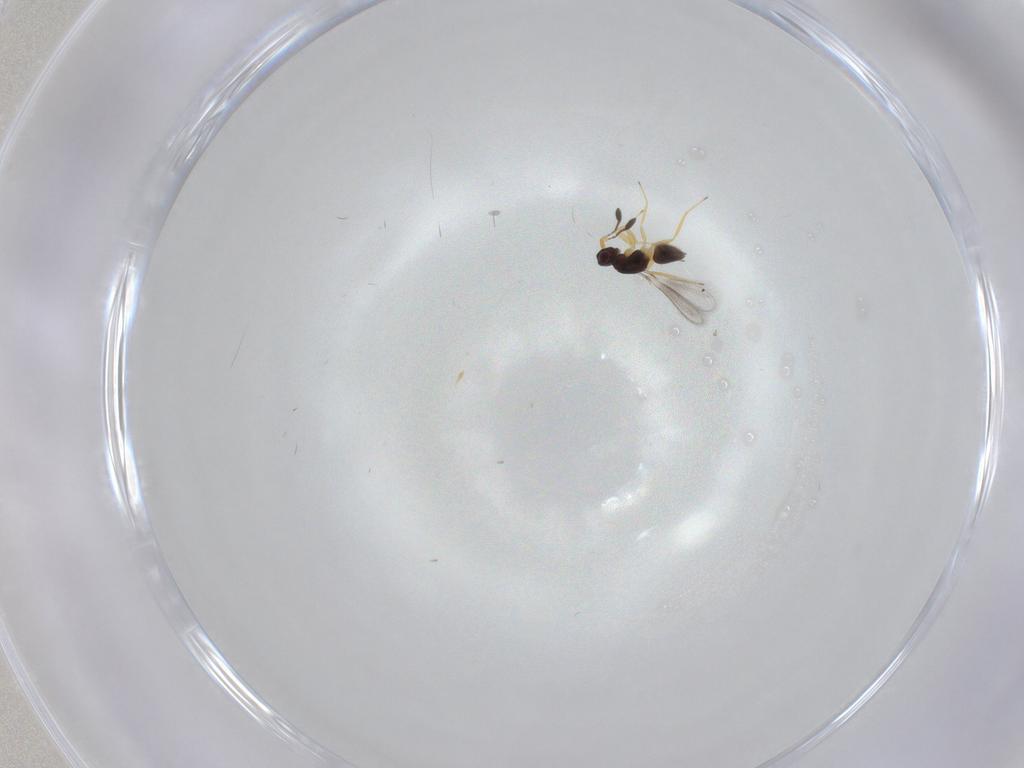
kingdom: Animalia
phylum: Arthropoda
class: Insecta
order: Hymenoptera
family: Mymaridae
